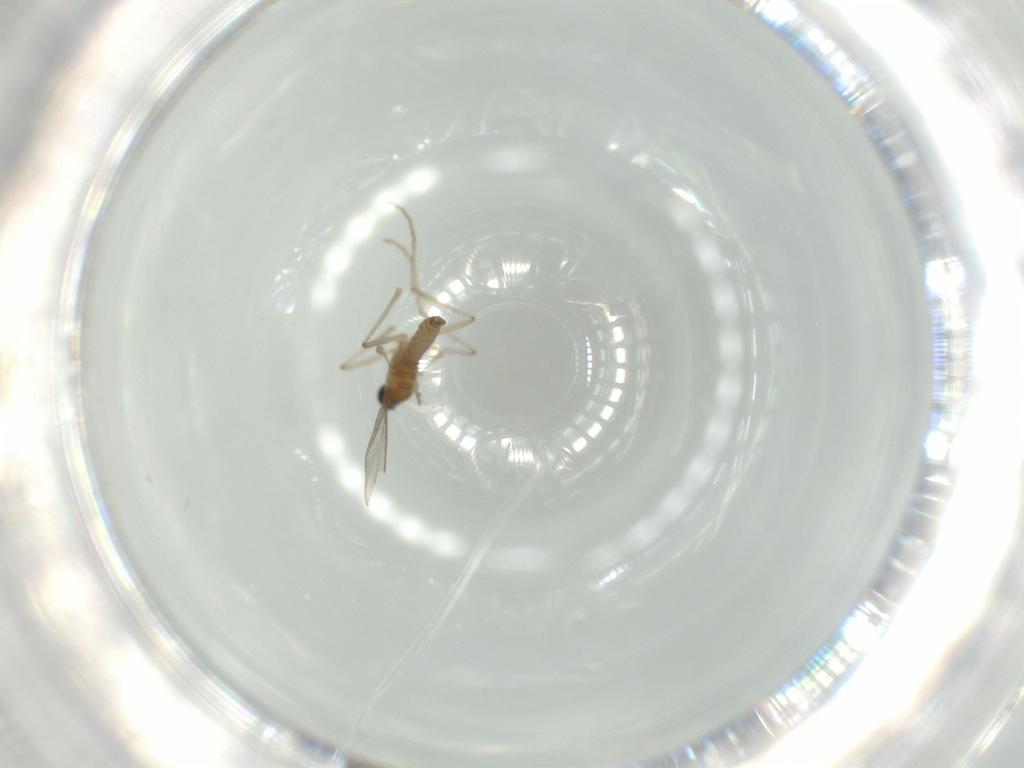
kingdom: Animalia
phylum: Arthropoda
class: Insecta
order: Diptera
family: Cecidomyiidae
